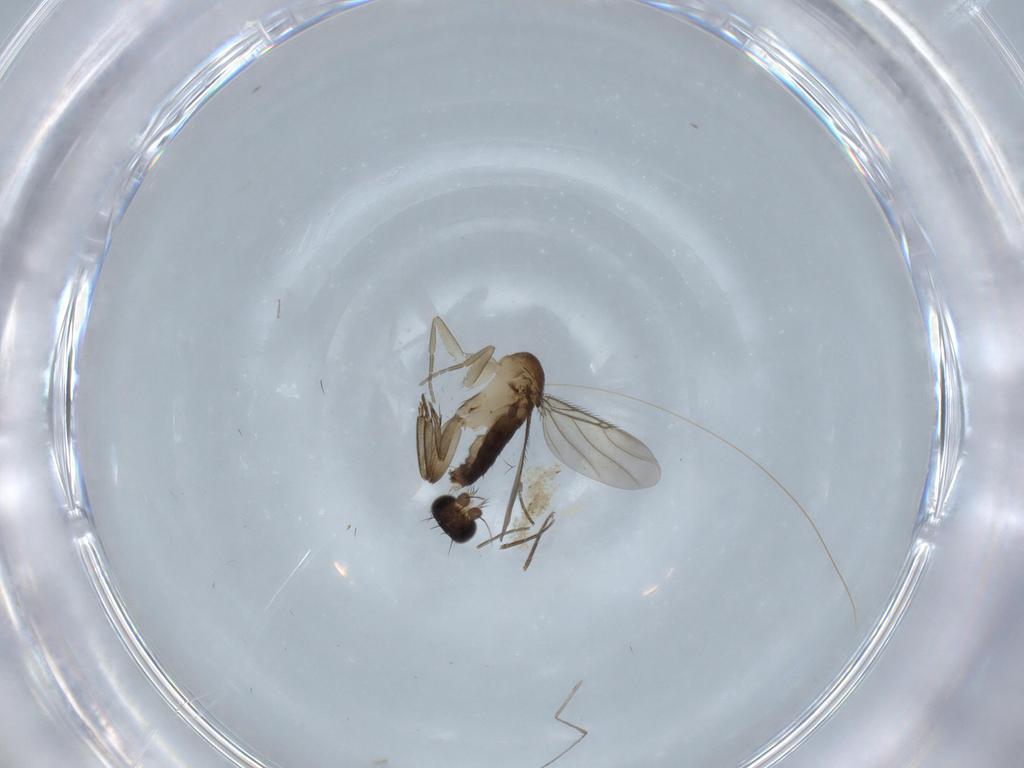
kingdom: Animalia
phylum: Arthropoda
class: Insecta
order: Diptera
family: Phoridae
